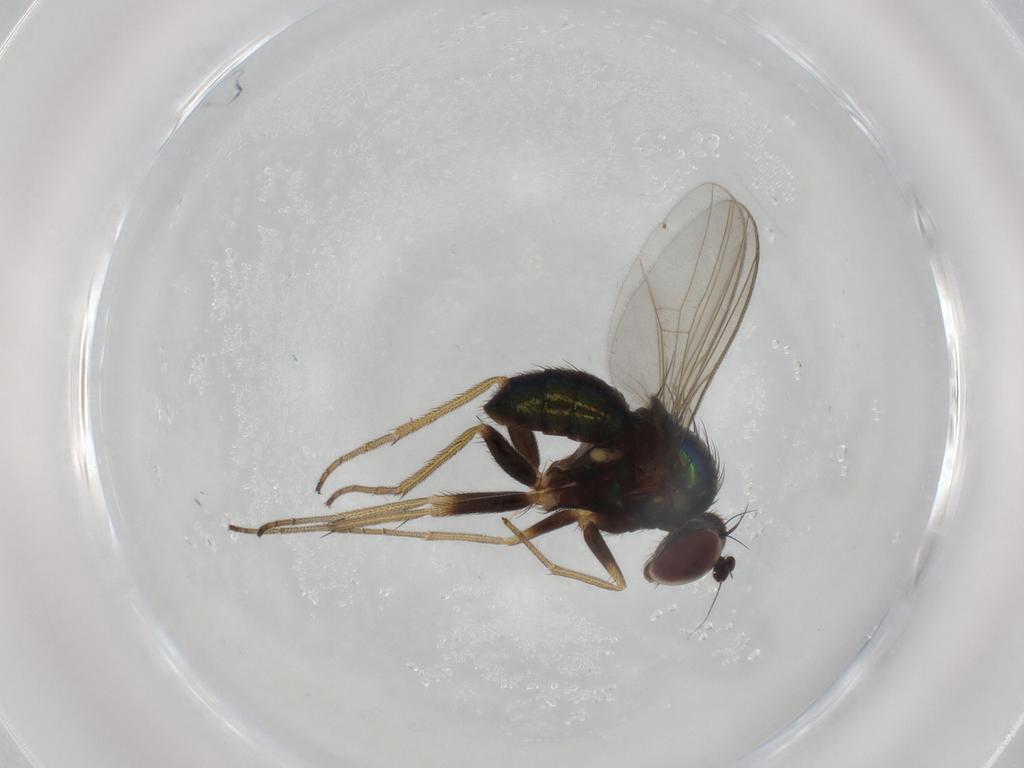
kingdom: Animalia
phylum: Arthropoda
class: Insecta
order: Diptera
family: Dolichopodidae
